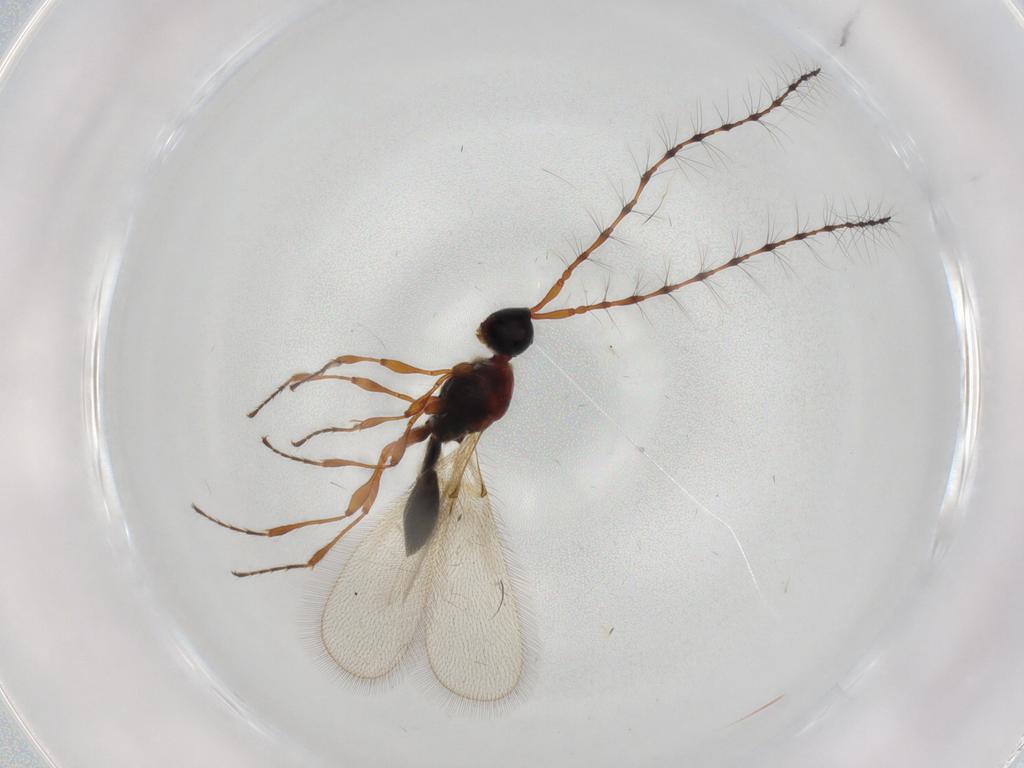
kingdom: Animalia
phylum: Arthropoda
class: Insecta
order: Hymenoptera
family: Diapriidae
